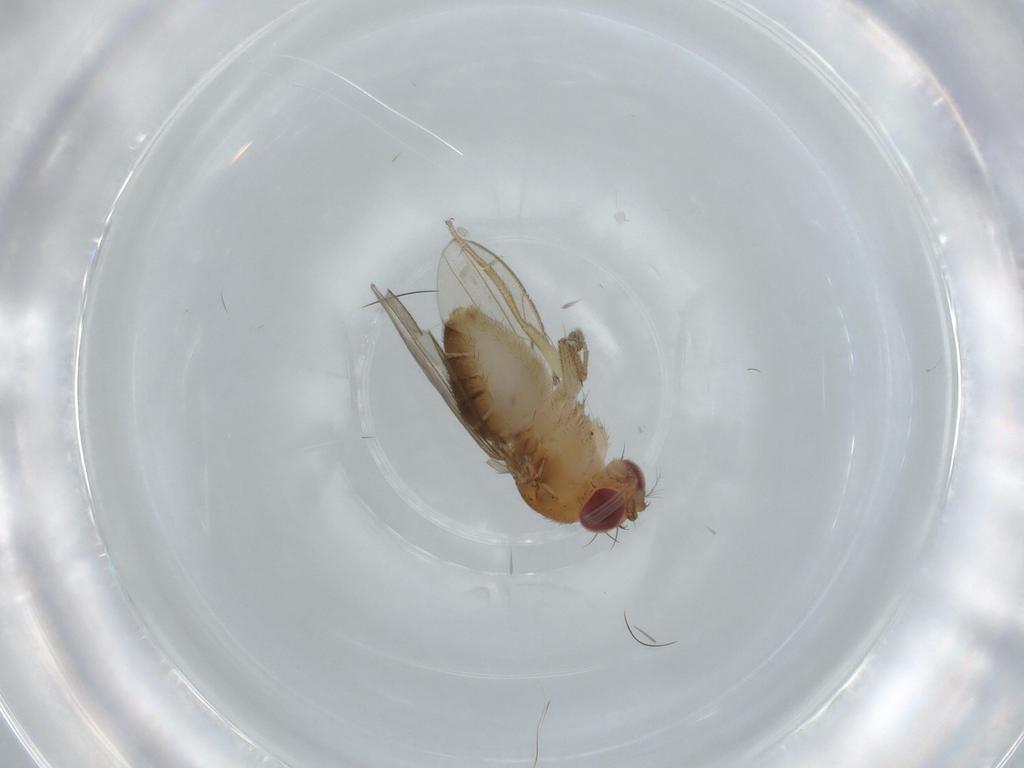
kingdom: Animalia
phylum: Arthropoda
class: Insecta
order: Diptera
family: Drosophilidae
